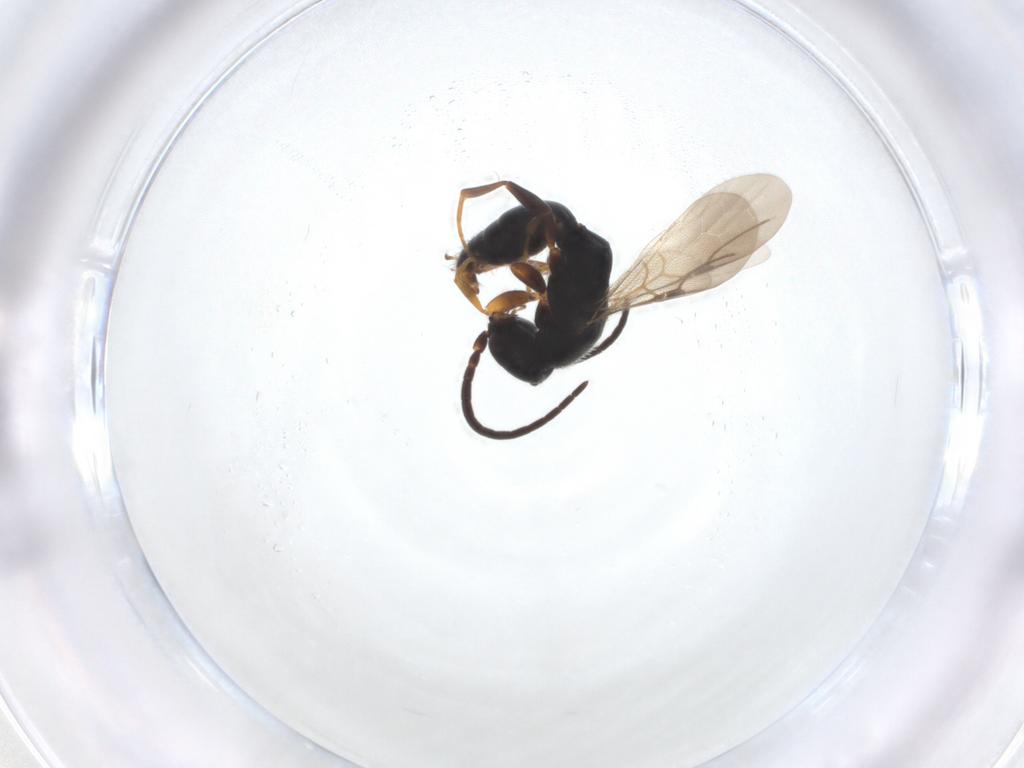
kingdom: Animalia
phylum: Arthropoda
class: Insecta
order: Hymenoptera
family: Bethylidae
